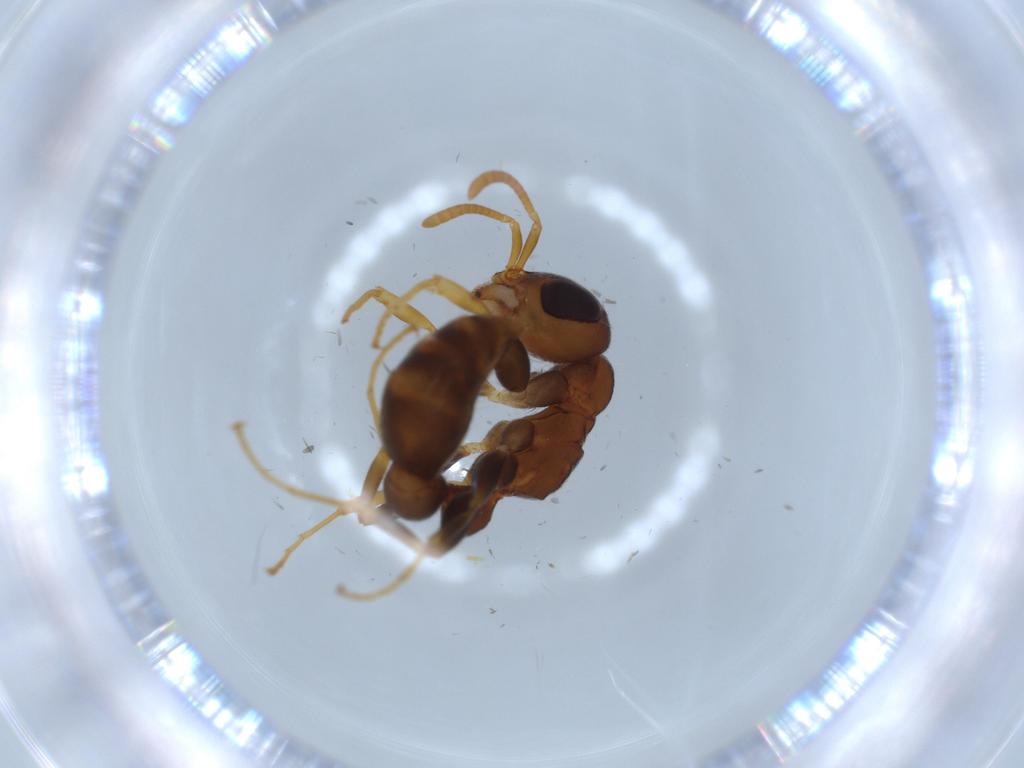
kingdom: Animalia
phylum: Arthropoda
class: Insecta
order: Hymenoptera
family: Formicidae
